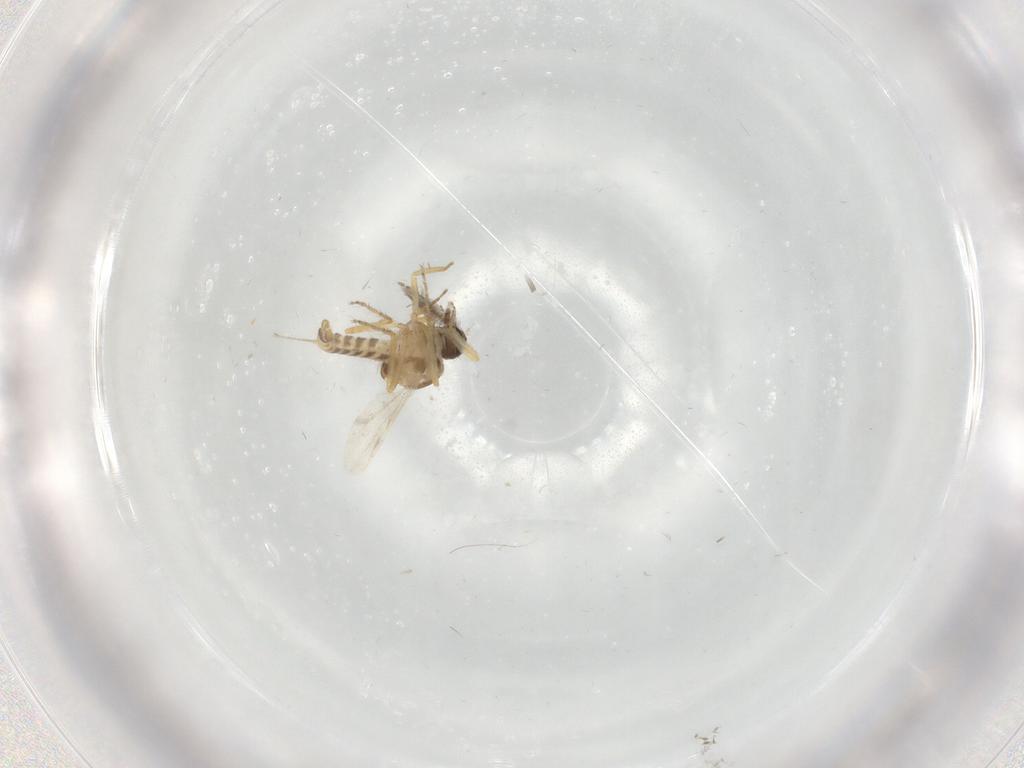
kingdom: Animalia
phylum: Arthropoda
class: Insecta
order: Diptera
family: Ceratopogonidae
